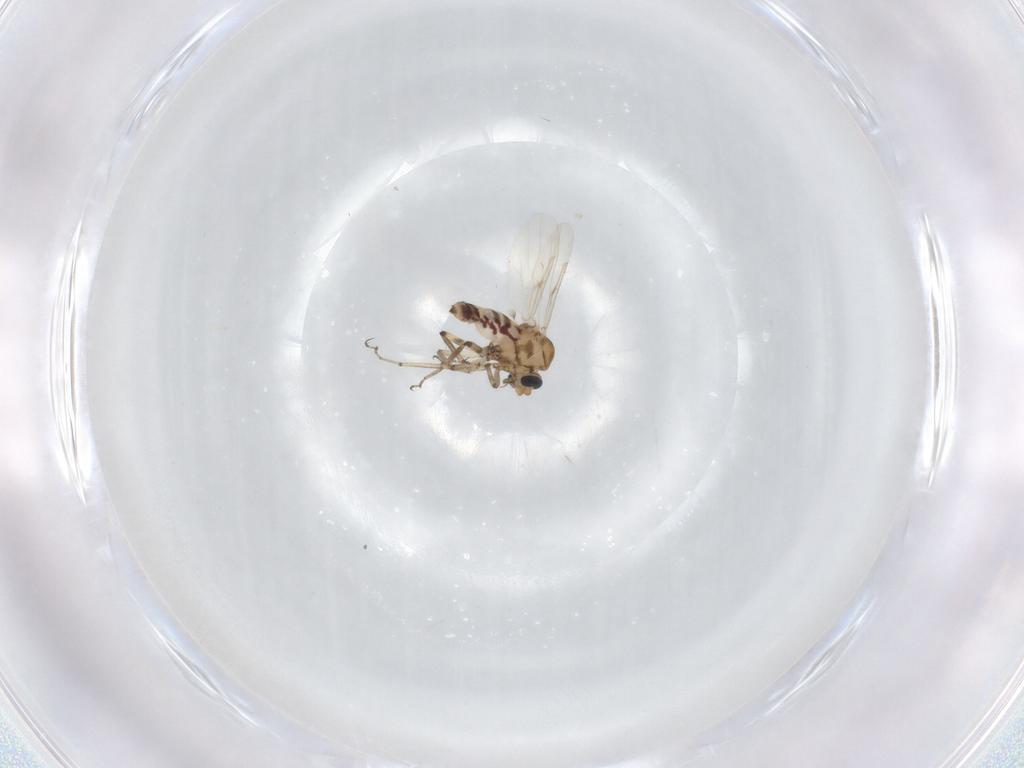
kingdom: Animalia
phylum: Arthropoda
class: Insecta
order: Diptera
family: Ceratopogonidae
